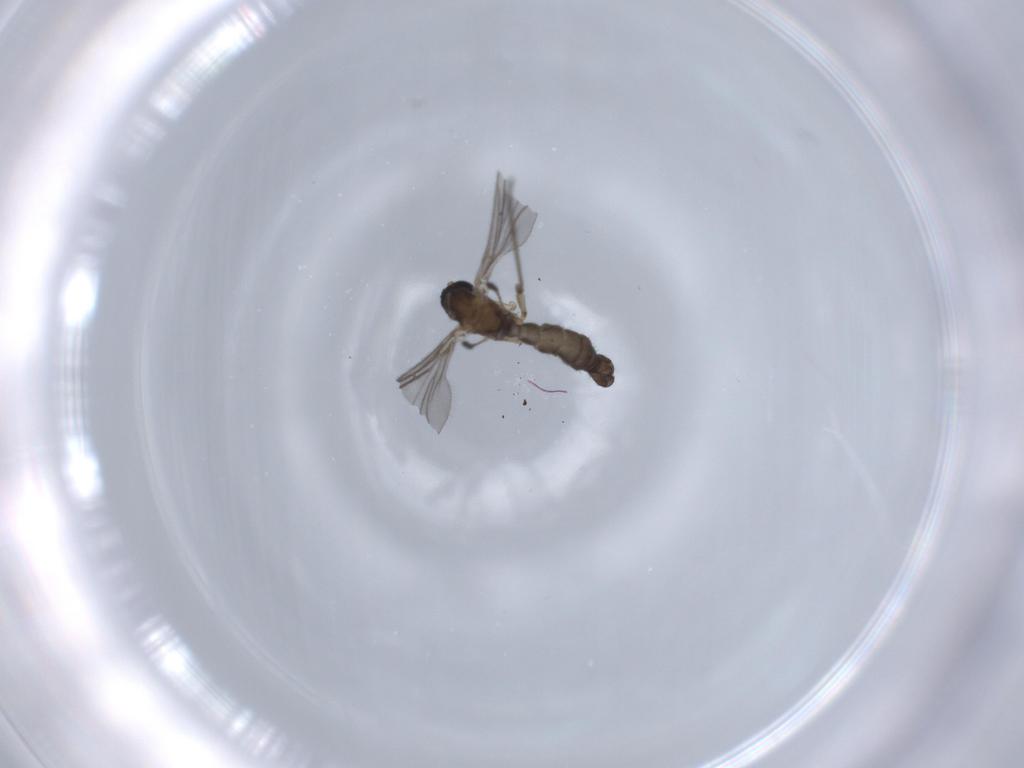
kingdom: Animalia
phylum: Arthropoda
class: Insecta
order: Diptera
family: Sciaridae
